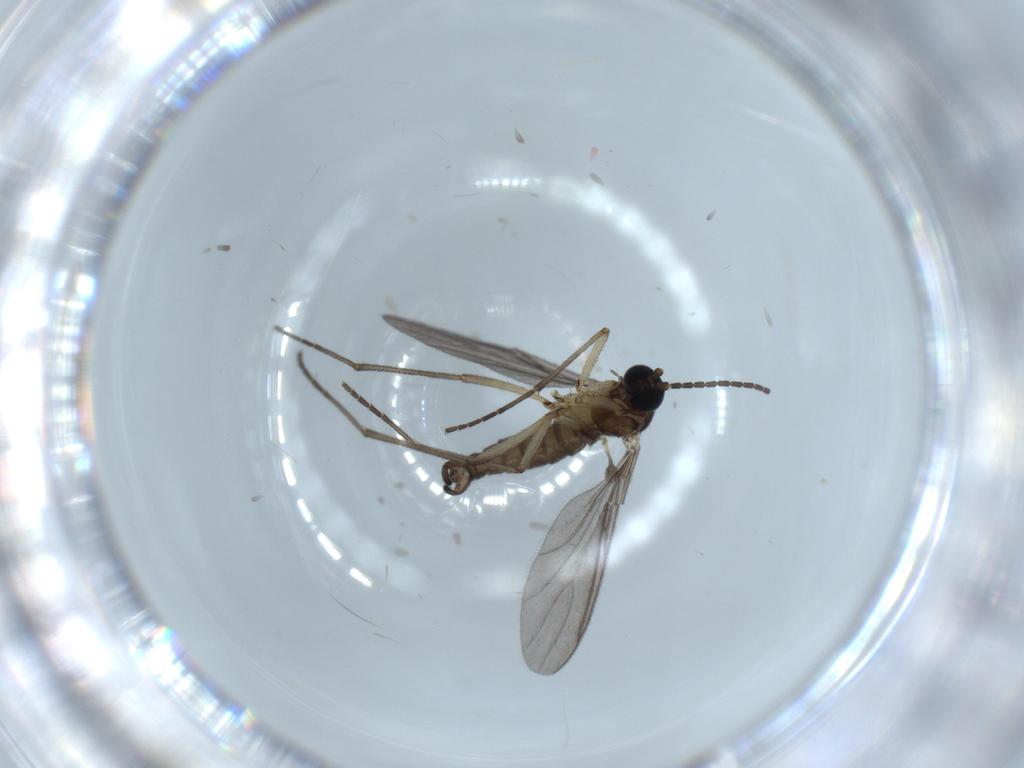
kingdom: Animalia
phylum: Arthropoda
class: Insecta
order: Diptera
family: Sciaridae
